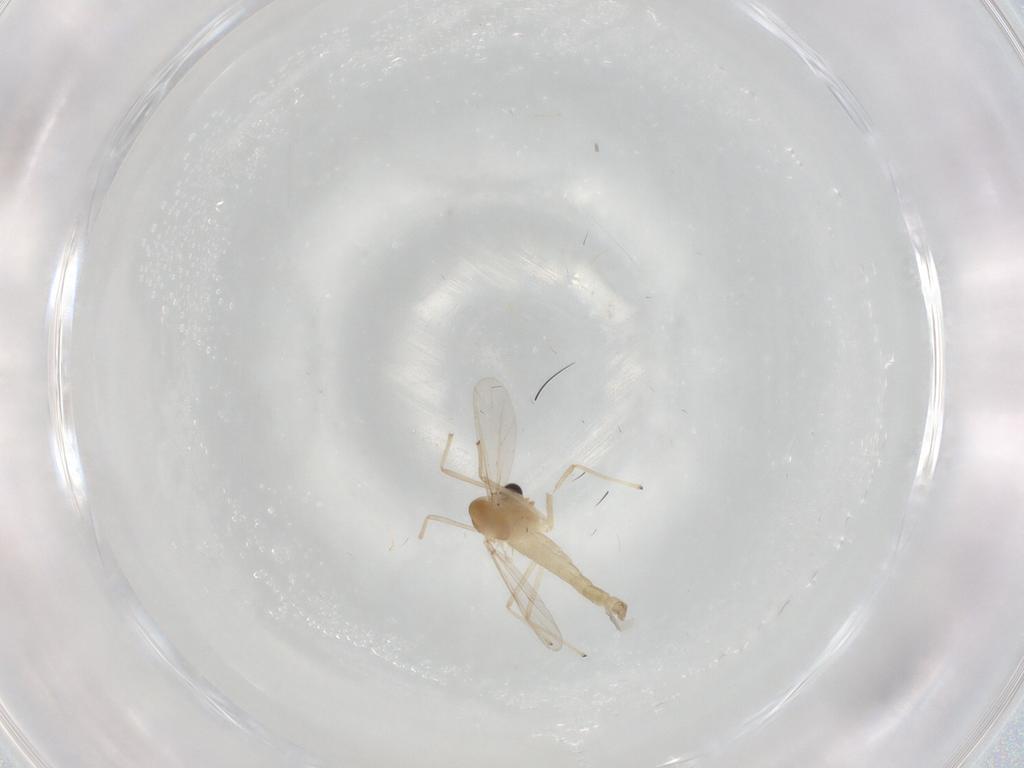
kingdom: Animalia
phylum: Arthropoda
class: Insecta
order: Diptera
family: Chironomidae
